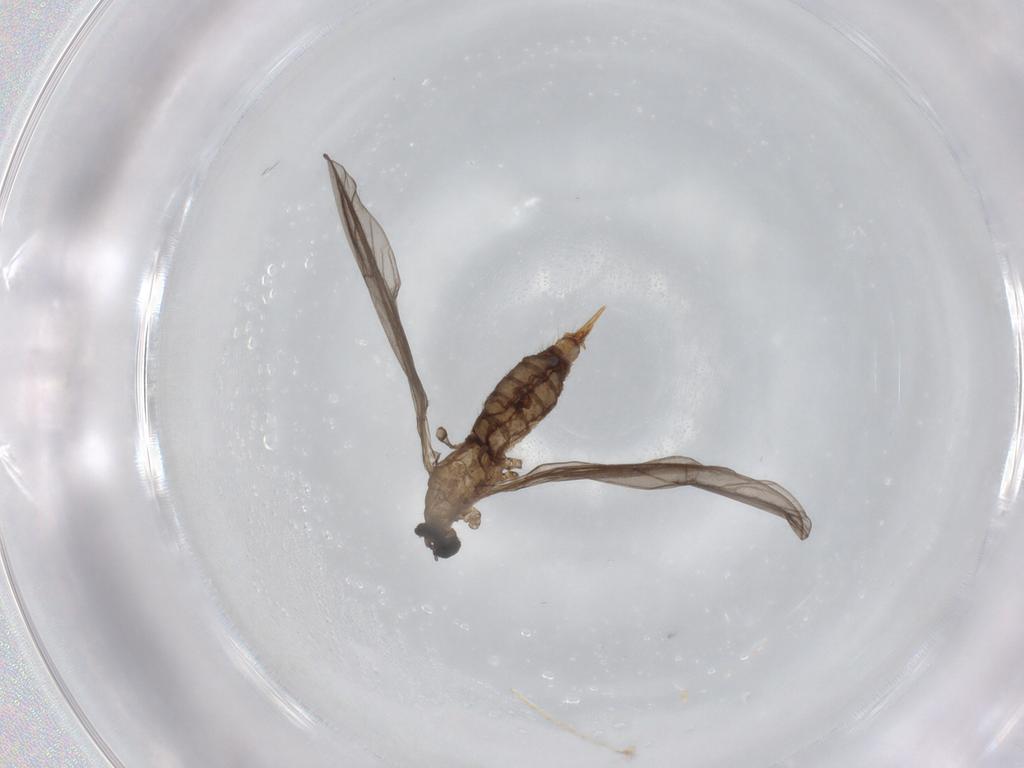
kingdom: Animalia
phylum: Arthropoda
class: Insecta
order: Diptera
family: Limoniidae
